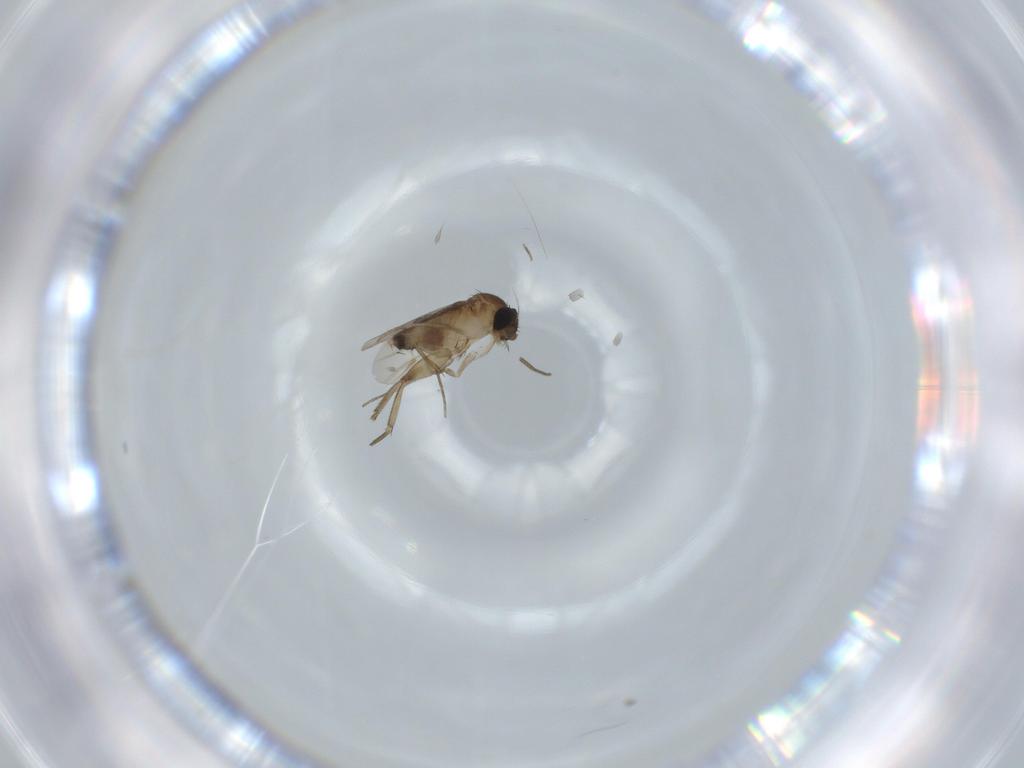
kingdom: Animalia
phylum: Arthropoda
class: Insecta
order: Diptera
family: Phoridae
